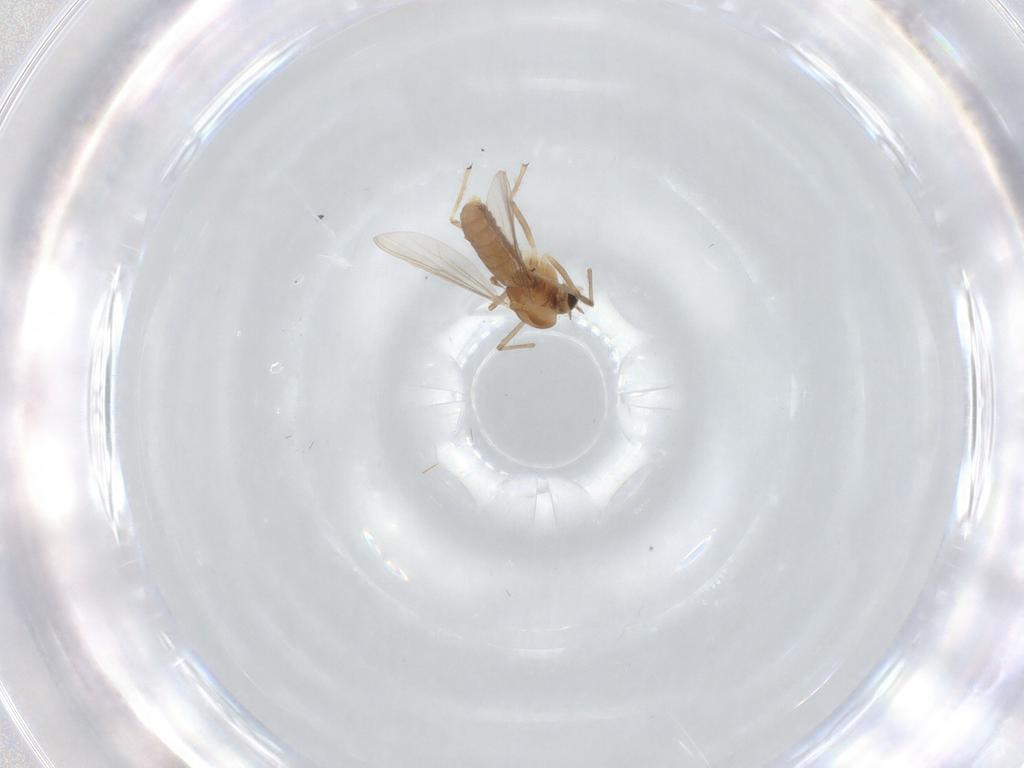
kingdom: Animalia
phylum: Arthropoda
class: Insecta
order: Diptera
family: Chironomidae
